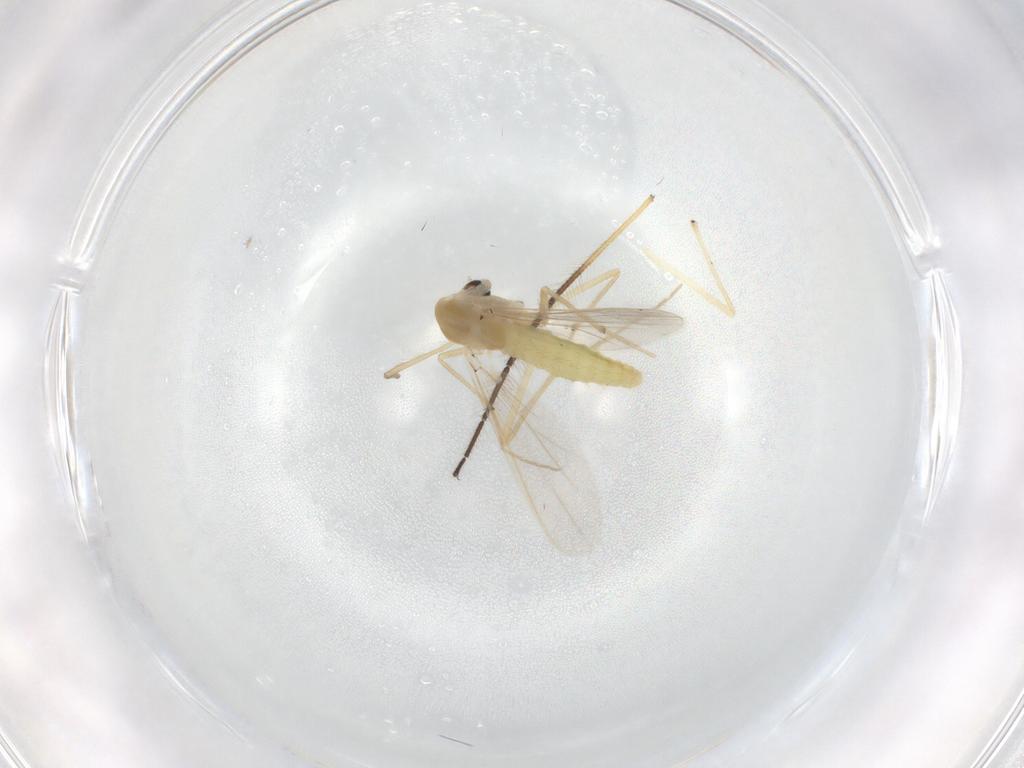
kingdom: Animalia
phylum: Arthropoda
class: Insecta
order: Diptera
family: Chironomidae
